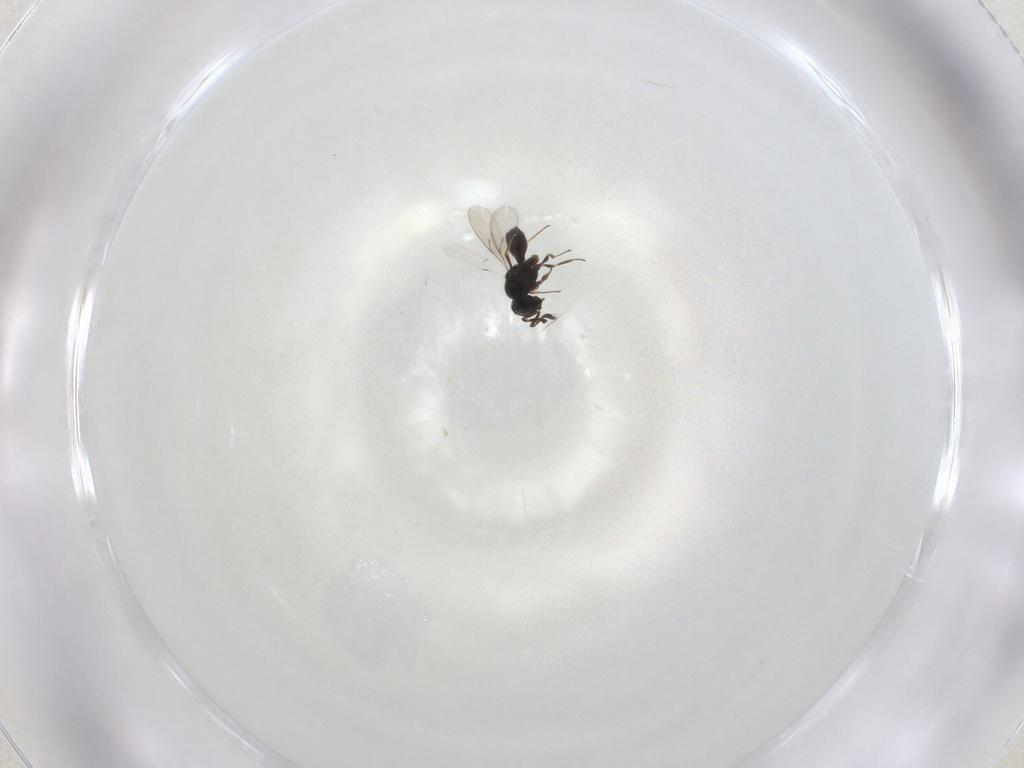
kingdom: Animalia
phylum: Arthropoda
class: Insecta
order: Hymenoptera
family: Scelionidae
